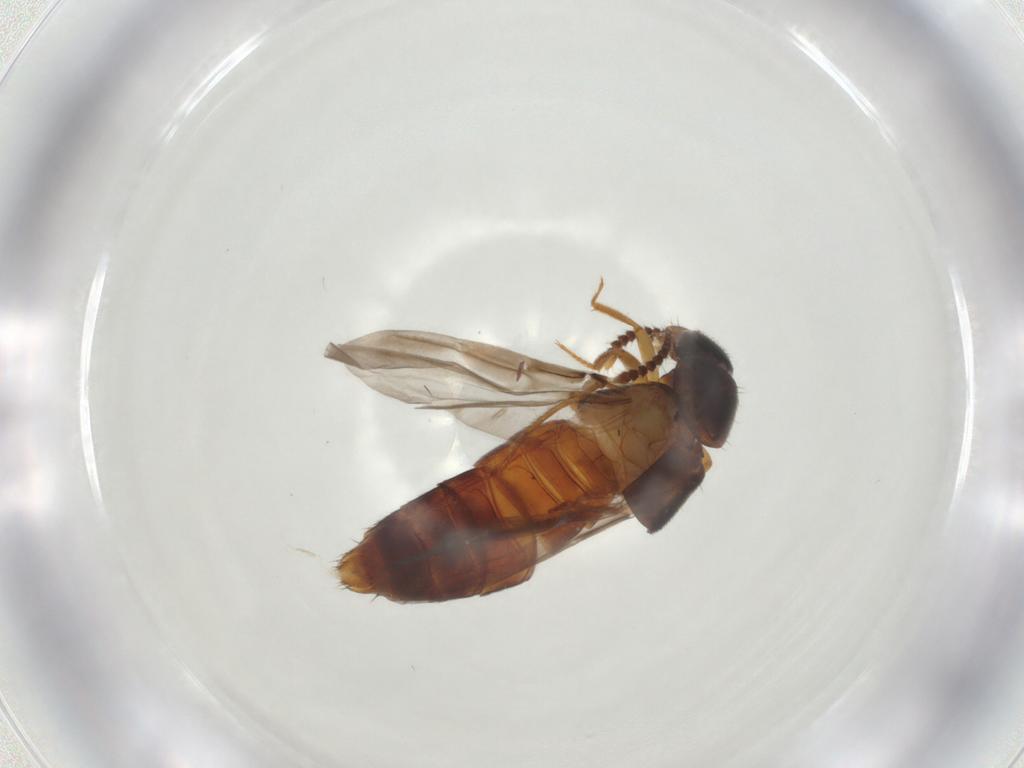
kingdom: Animalia
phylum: Arthropoda
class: Insecta
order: Coleoptera
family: Staphylinidae
